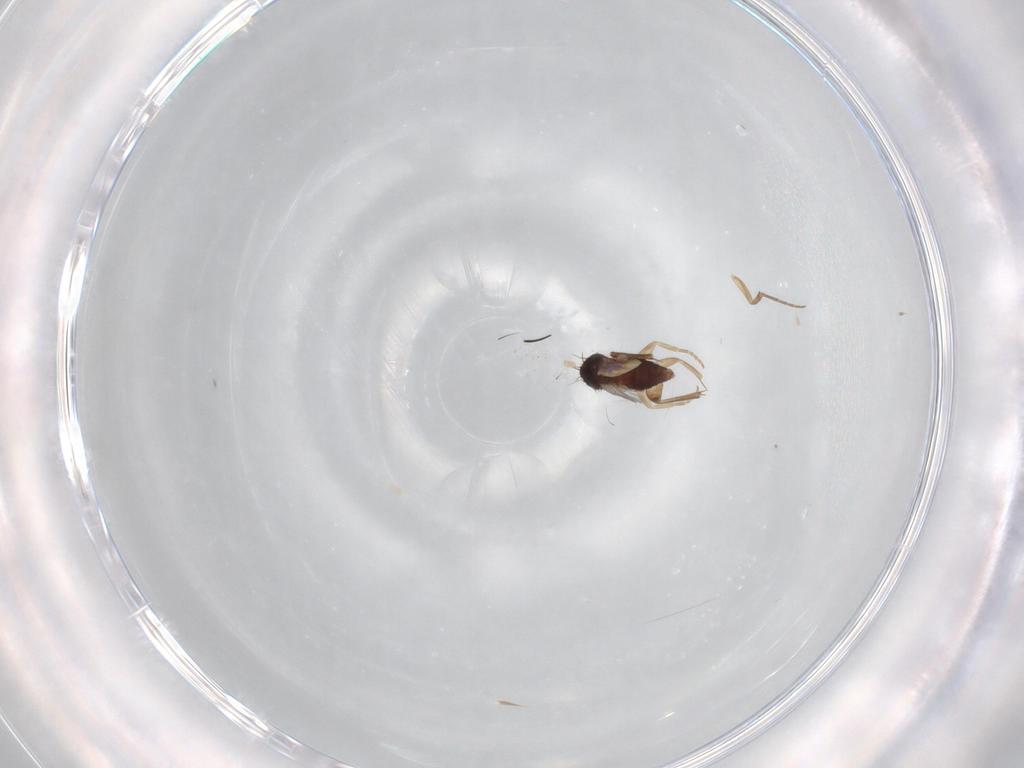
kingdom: Animalia
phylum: Arthropoda
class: Insecta
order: Diptera
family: Phoridae
